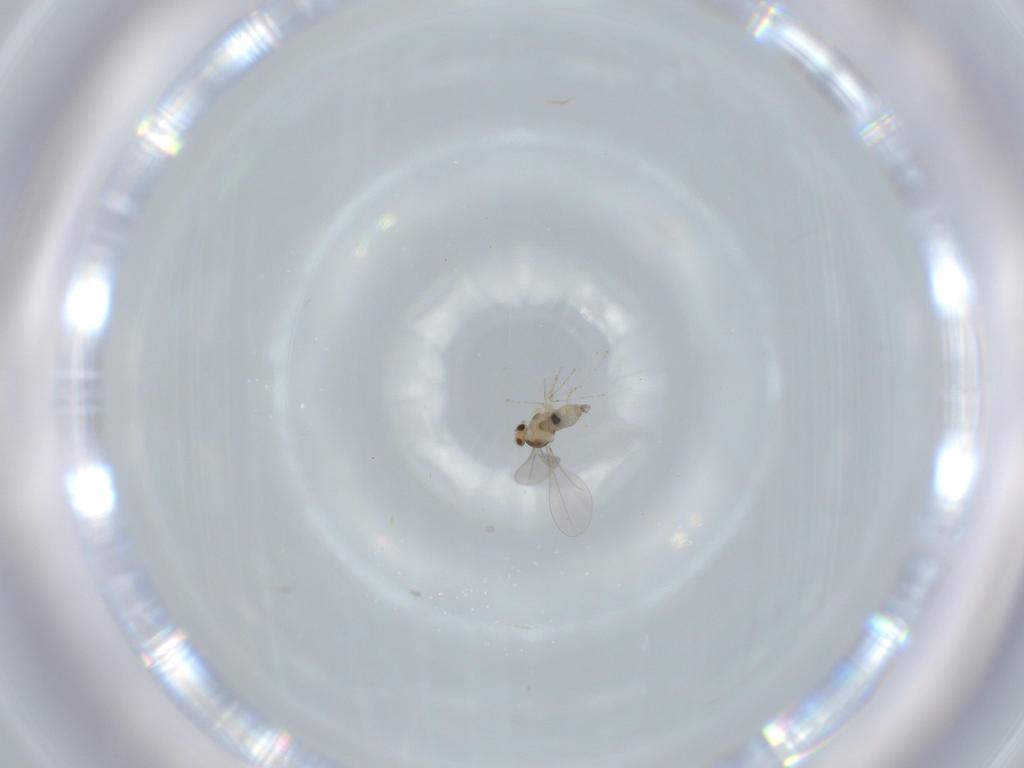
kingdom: Animalia
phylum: Arthropoda
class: Insecta
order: Diptera
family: Cecidomyiidae
